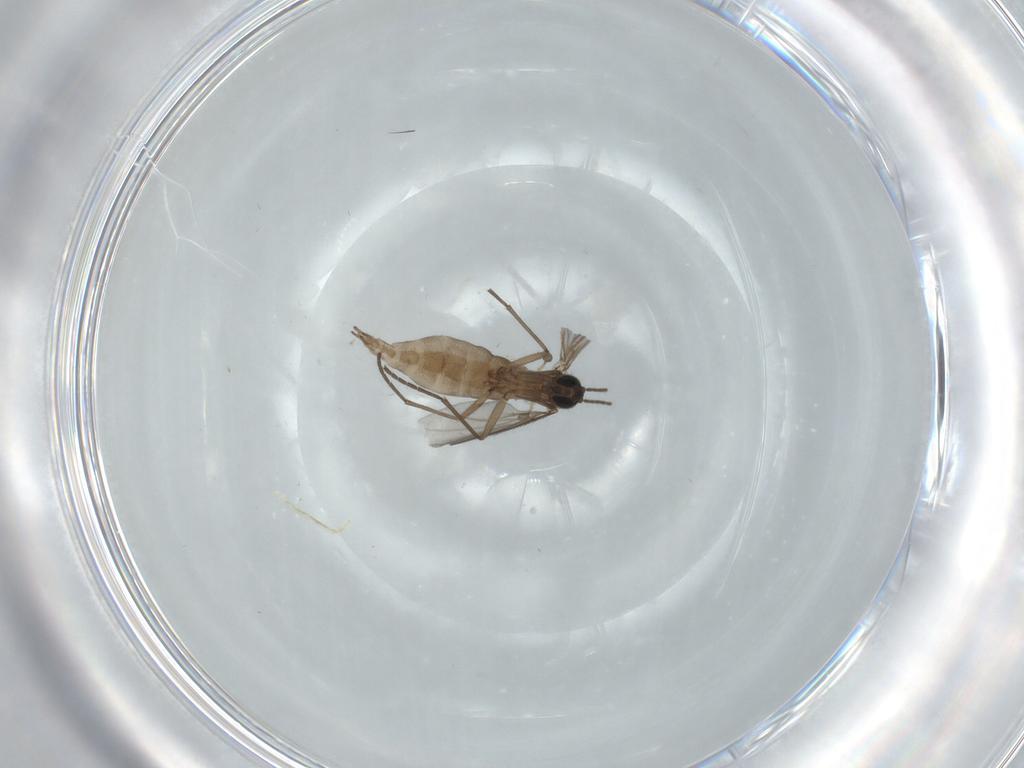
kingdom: Animalia
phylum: Arthropoda
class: Insecta
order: Diptera
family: Sciaridae
